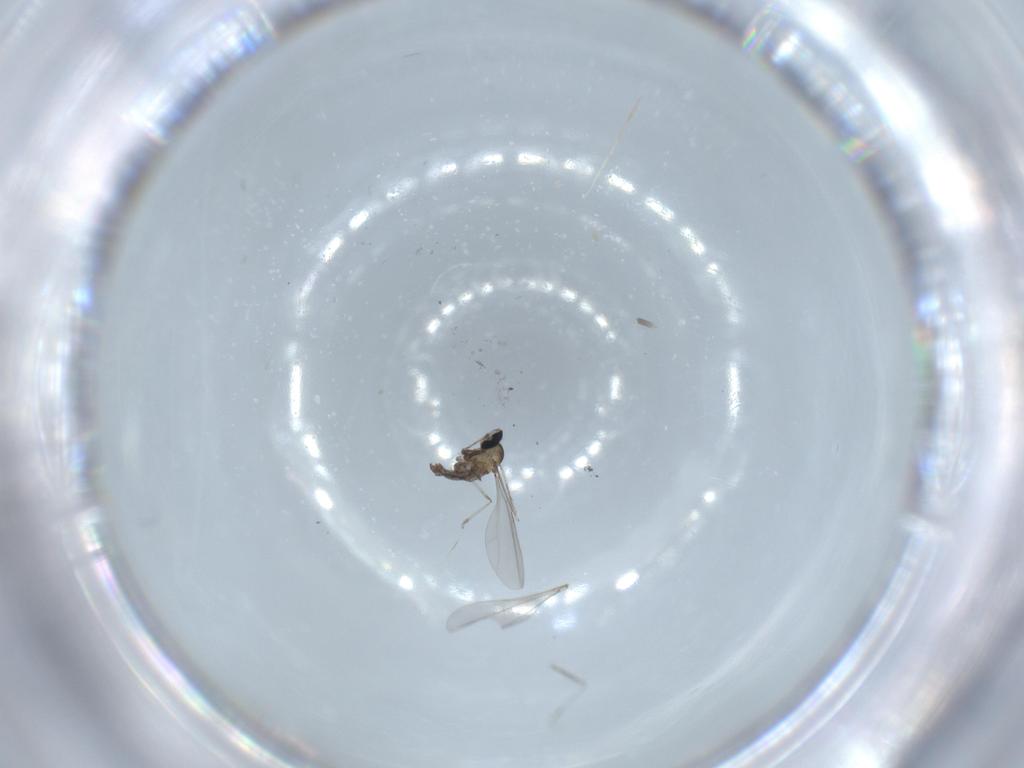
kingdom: Animalia
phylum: Arthropoda
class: Insecta
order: Diptera
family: Cecidomyiidae
